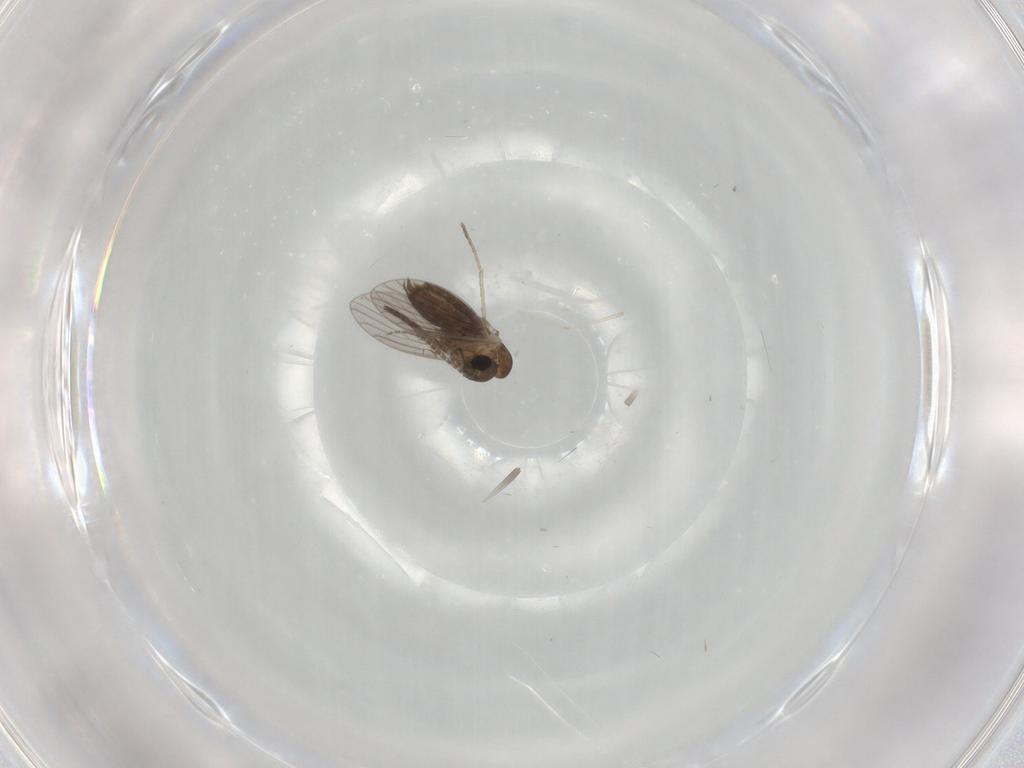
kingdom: Animalia
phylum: Arthropoda
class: Insecta
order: Diptera
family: Cecidomyiidae
